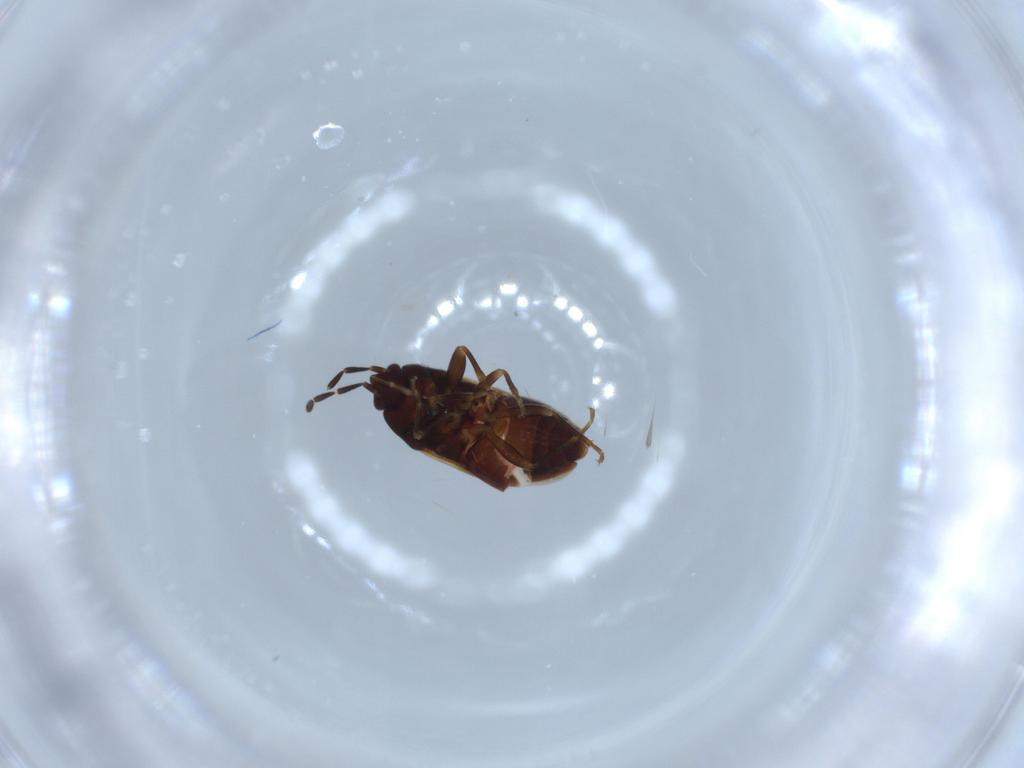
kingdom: Animalia
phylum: Arthropoda
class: Insecta
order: Hemiptera
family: Rhyparochromidae
